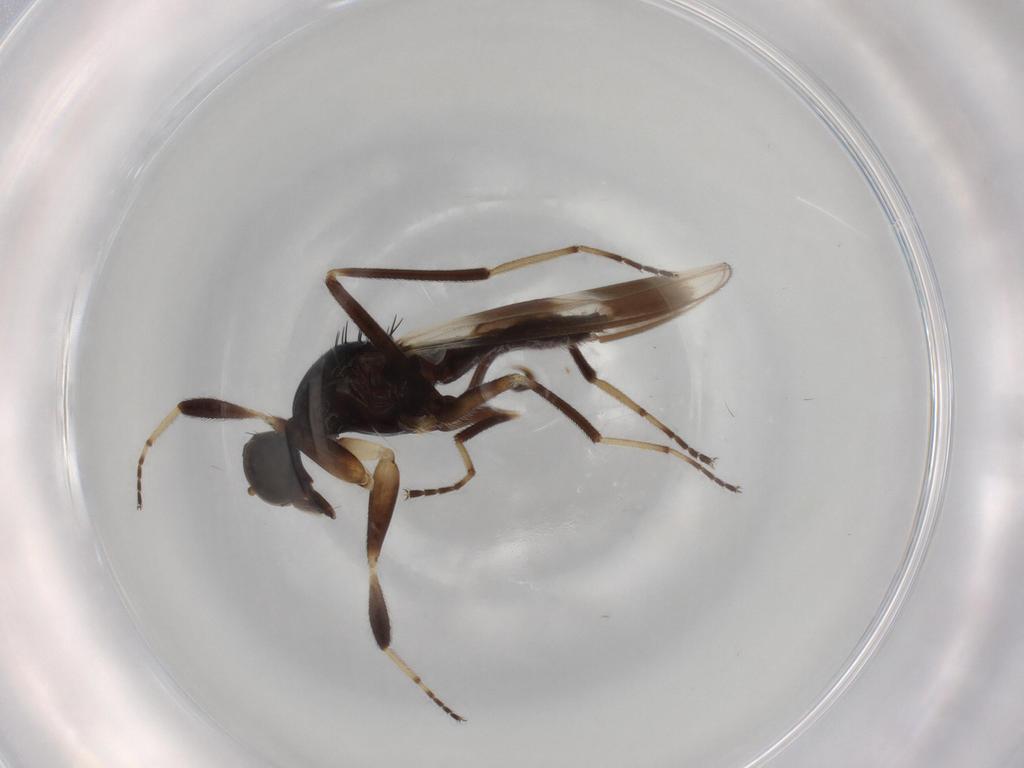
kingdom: Animalia
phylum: Arthropoda
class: Insecta
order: Diptera
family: Hybotidae
